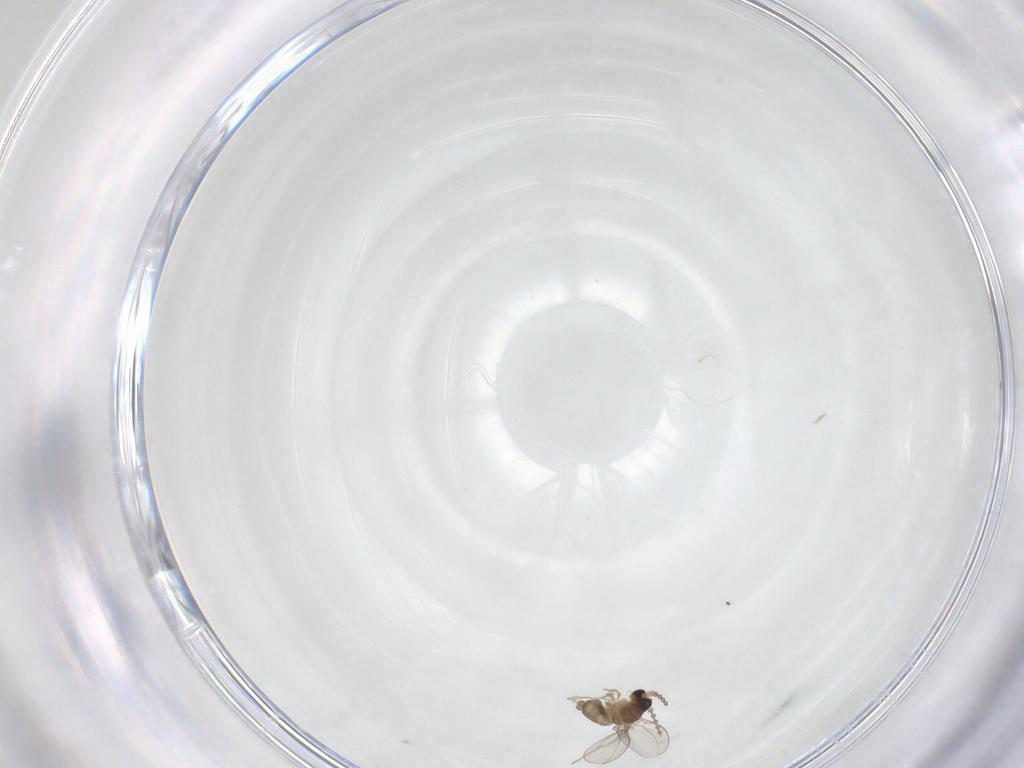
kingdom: Animalia
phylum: Arthropoda
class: Insecta
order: Diptera
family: Cecidomyiidae
